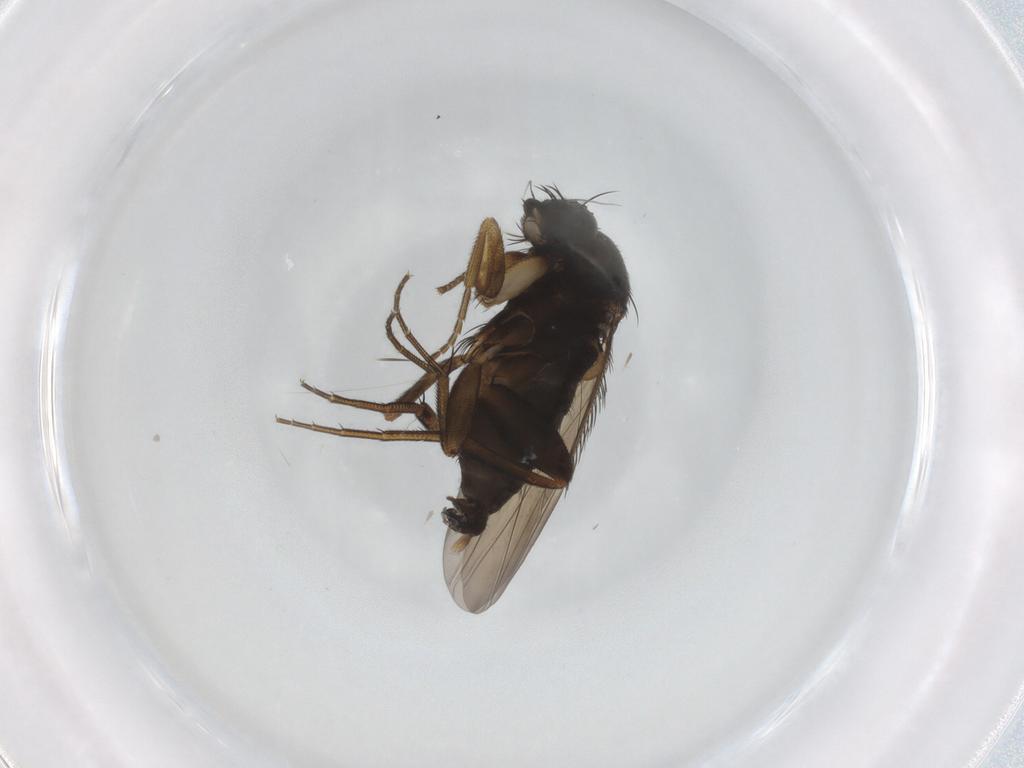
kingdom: Animalia
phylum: Arthropoda
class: Insecta
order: Diptera
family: Phoridae
